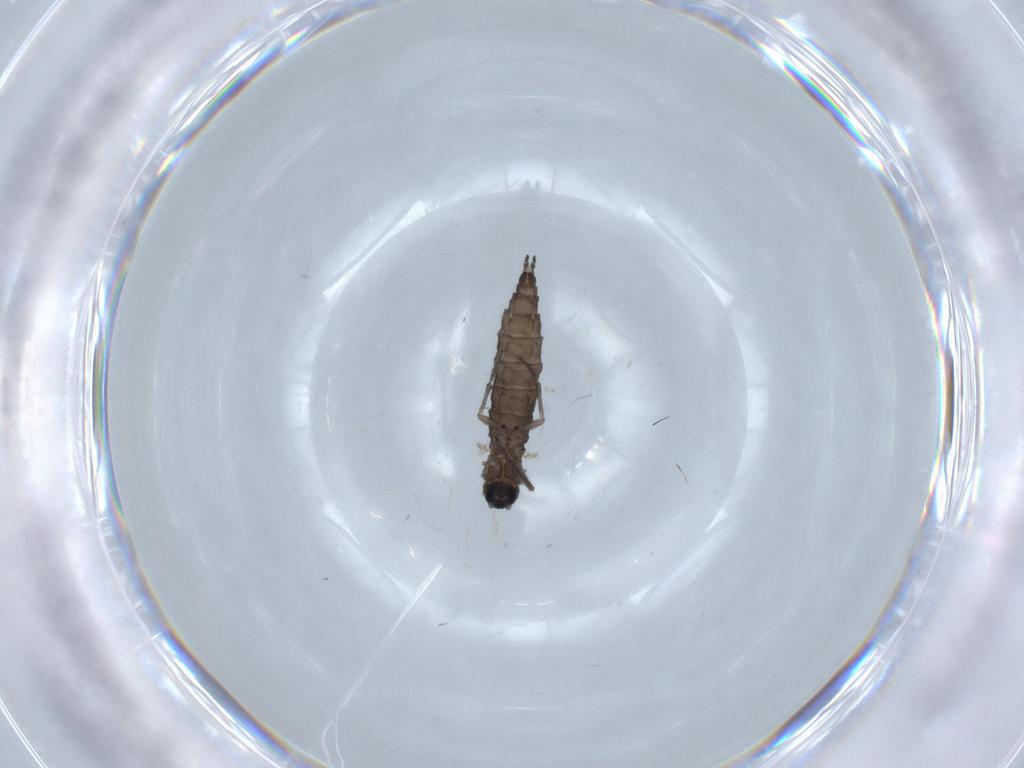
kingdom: Animalia
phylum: Arthropoda
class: Insecta
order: Diptera
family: Sciaridae
